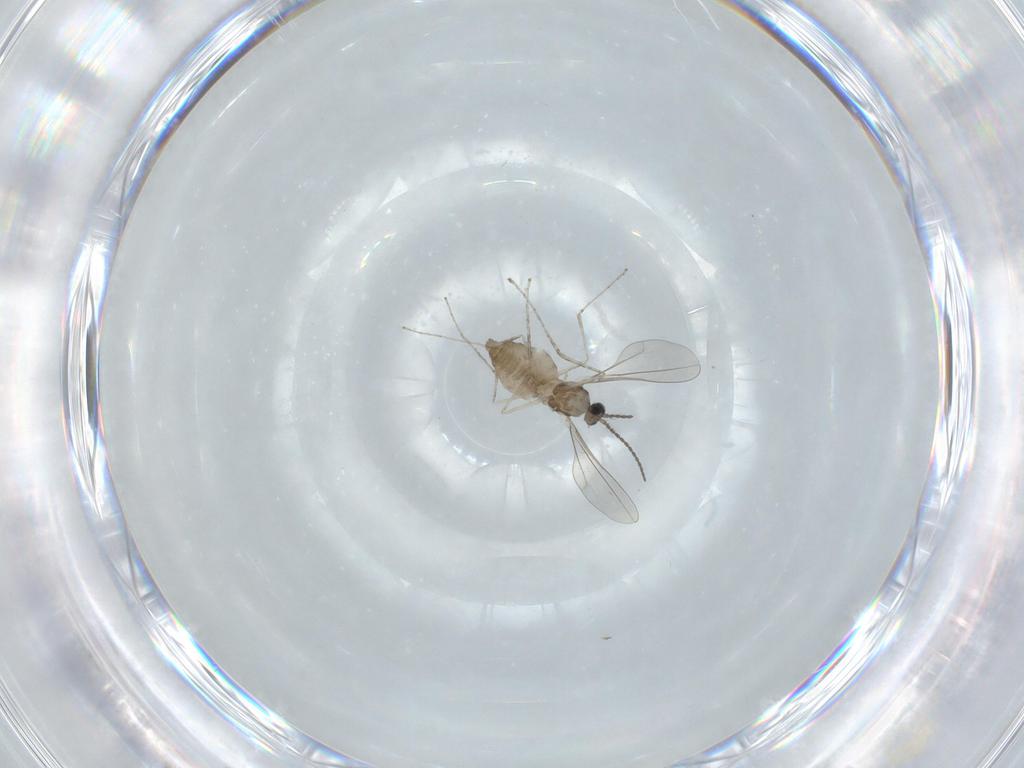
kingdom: Animalia
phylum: Arthropoda
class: Insecta
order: Diptera
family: Cecidomyiidae
